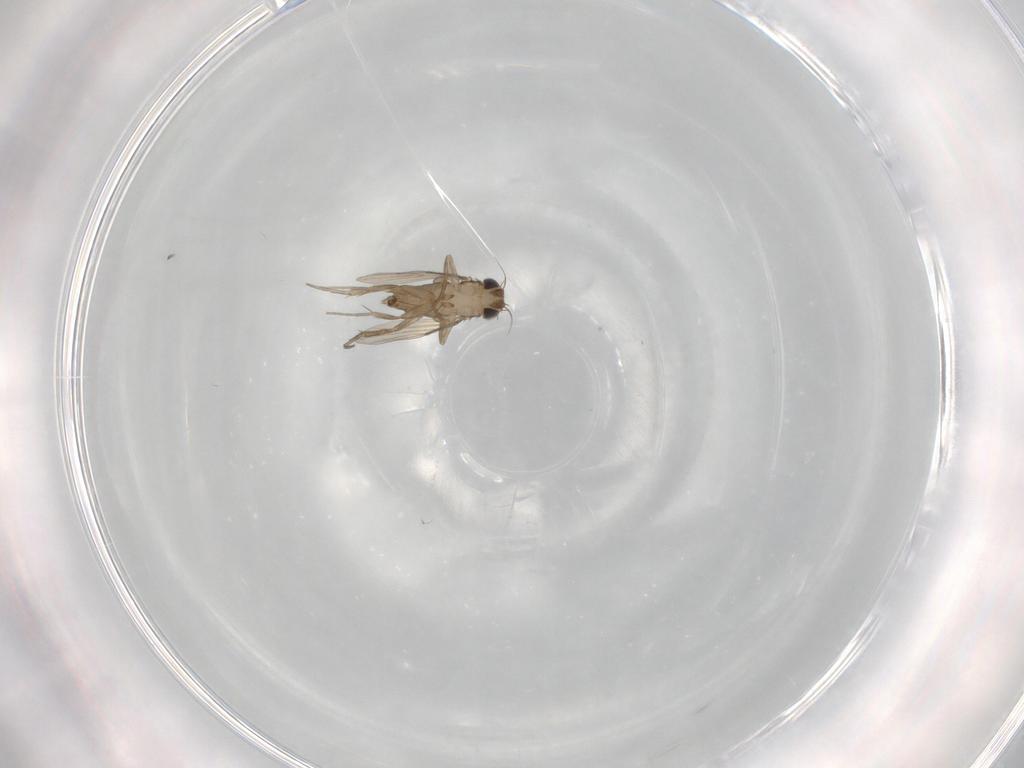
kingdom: Animalia
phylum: Arthropoda
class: Insecta
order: Diptera
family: Phoridae
